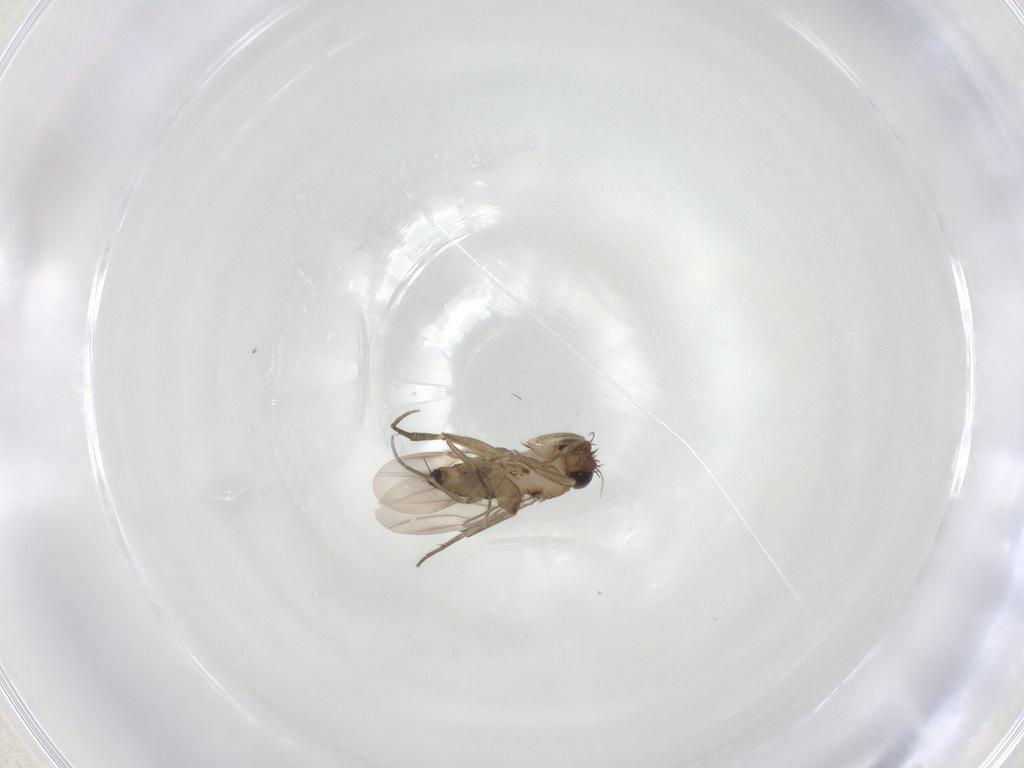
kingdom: Animalia
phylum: Arthropoda
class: Insecta
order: Diptera
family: Phoridae
